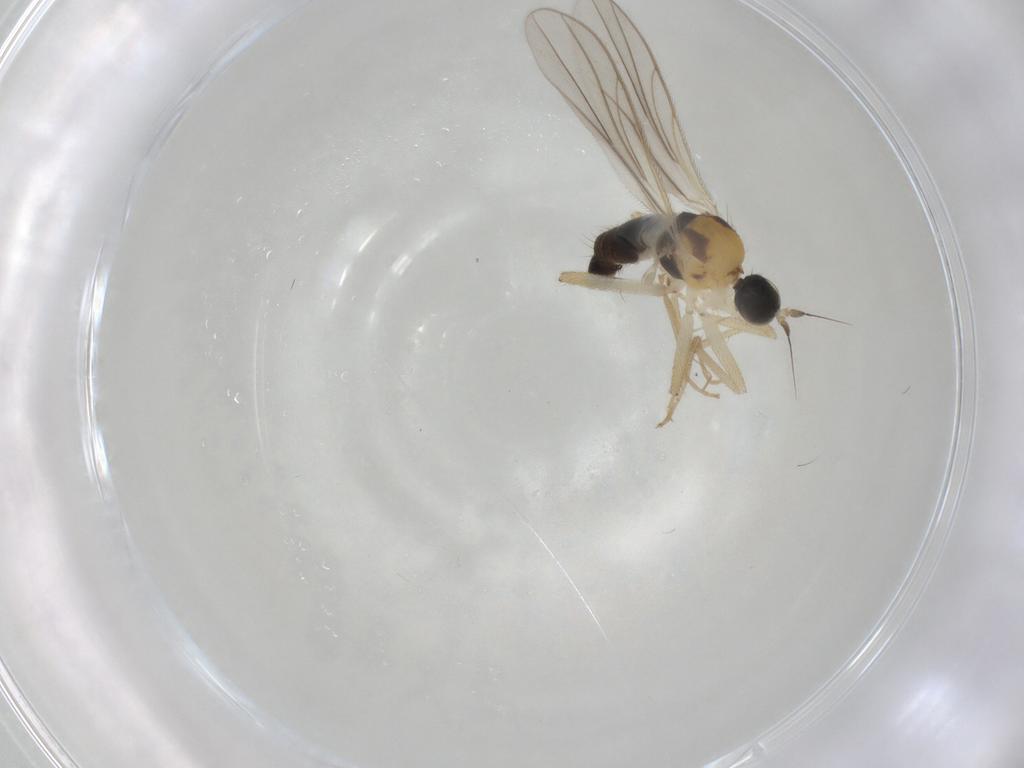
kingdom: Animalia
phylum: Arthropoda
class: Insecta
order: Diptera
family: Hybotidae
